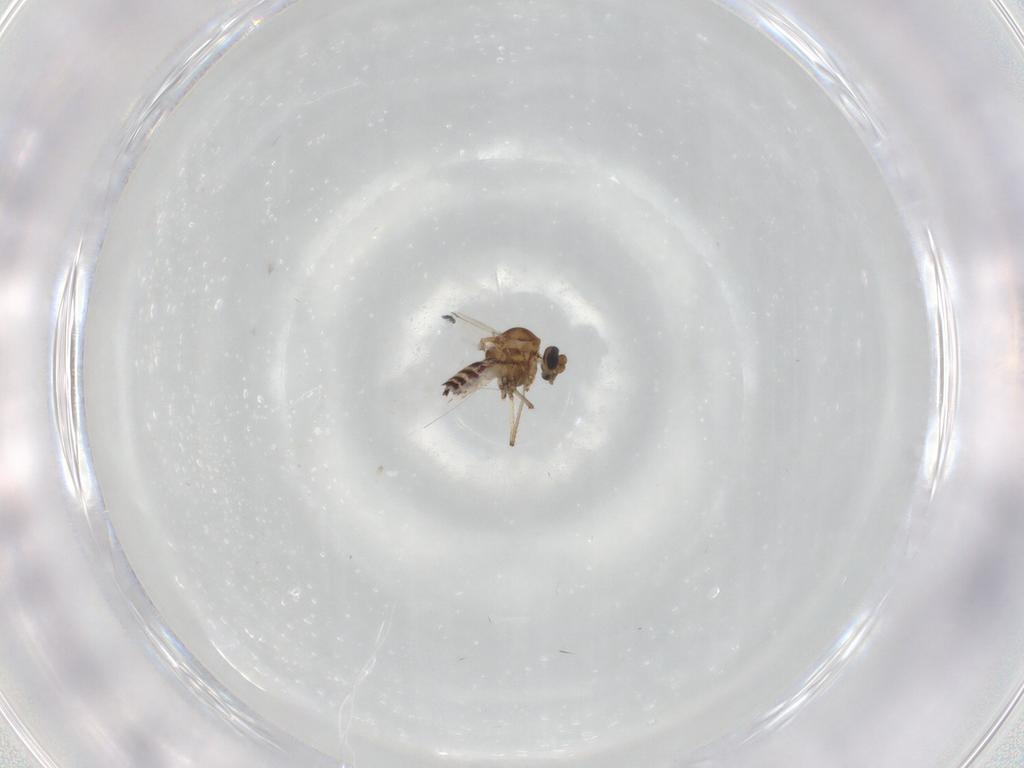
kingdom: Animalia
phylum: Arthropoda
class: Insecta
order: Diptera
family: Ceratopogonidae
